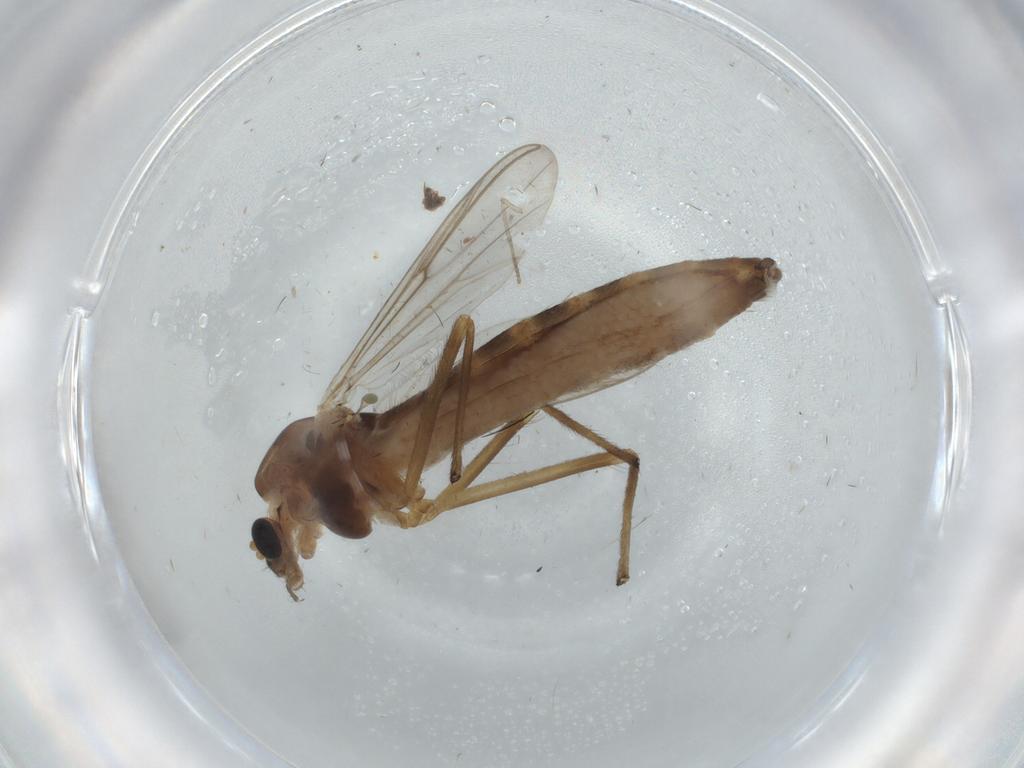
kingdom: Animalia
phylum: Arthropoda
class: Insecta
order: Diptera
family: Chironomidae
